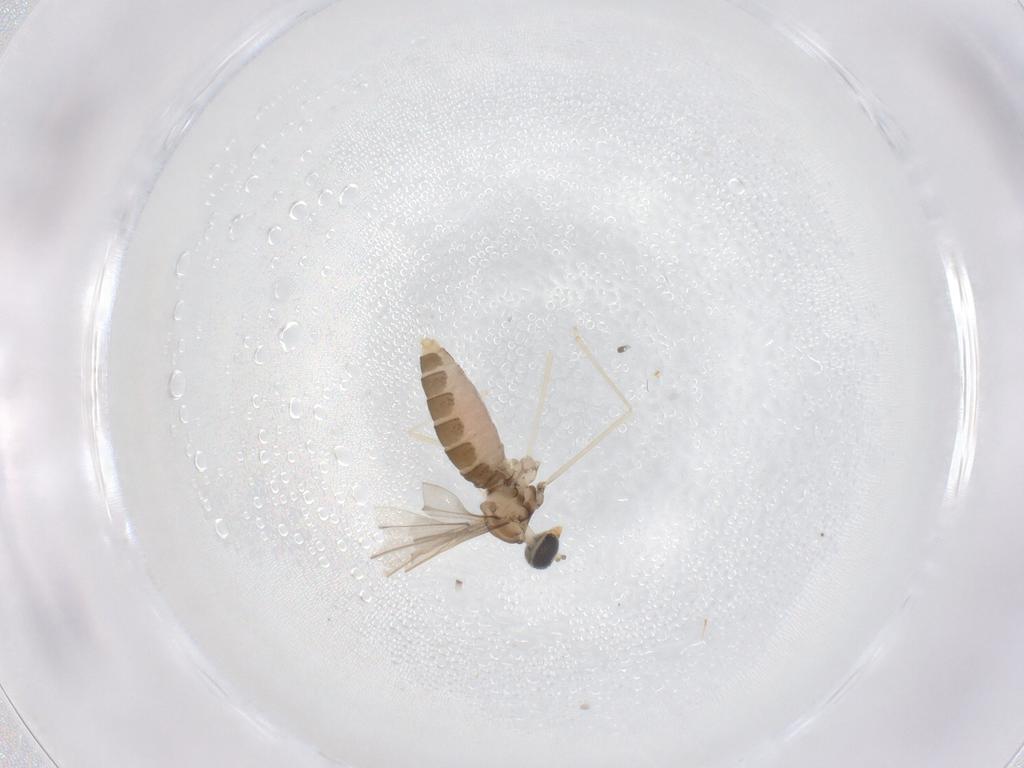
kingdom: Animalia
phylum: Arthropoda
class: Insecta
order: Diptera
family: Cecidomyiidae
